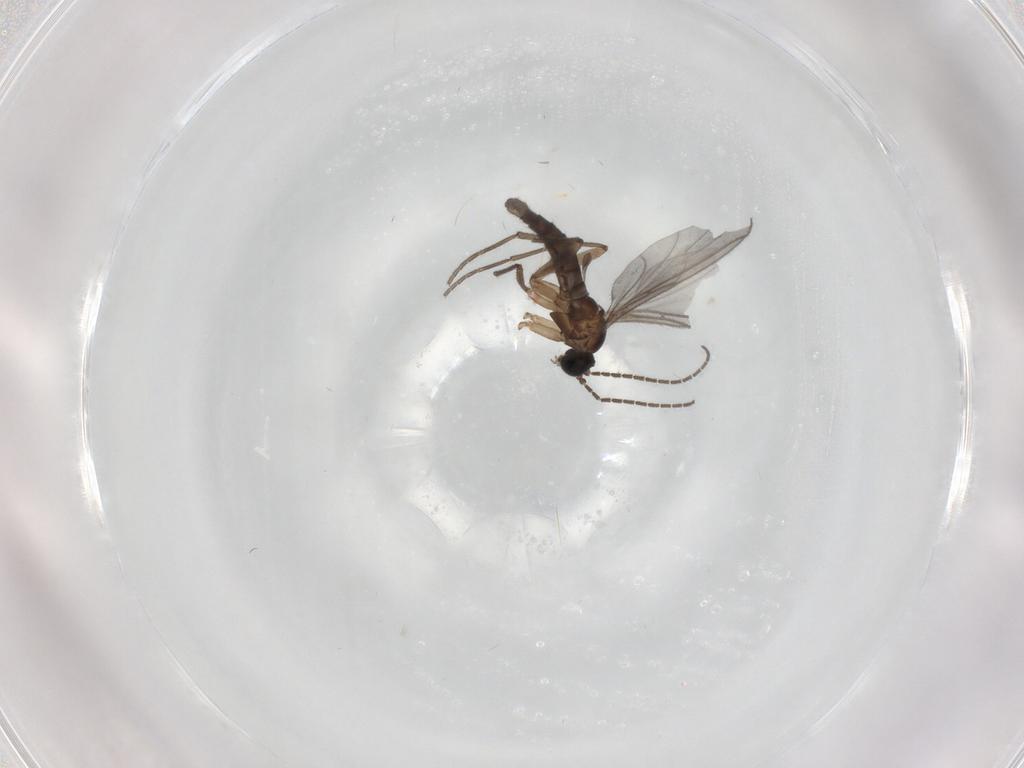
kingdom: Animalia
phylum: Arthropoda
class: Insecta
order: Diptera
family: Sciaridae
